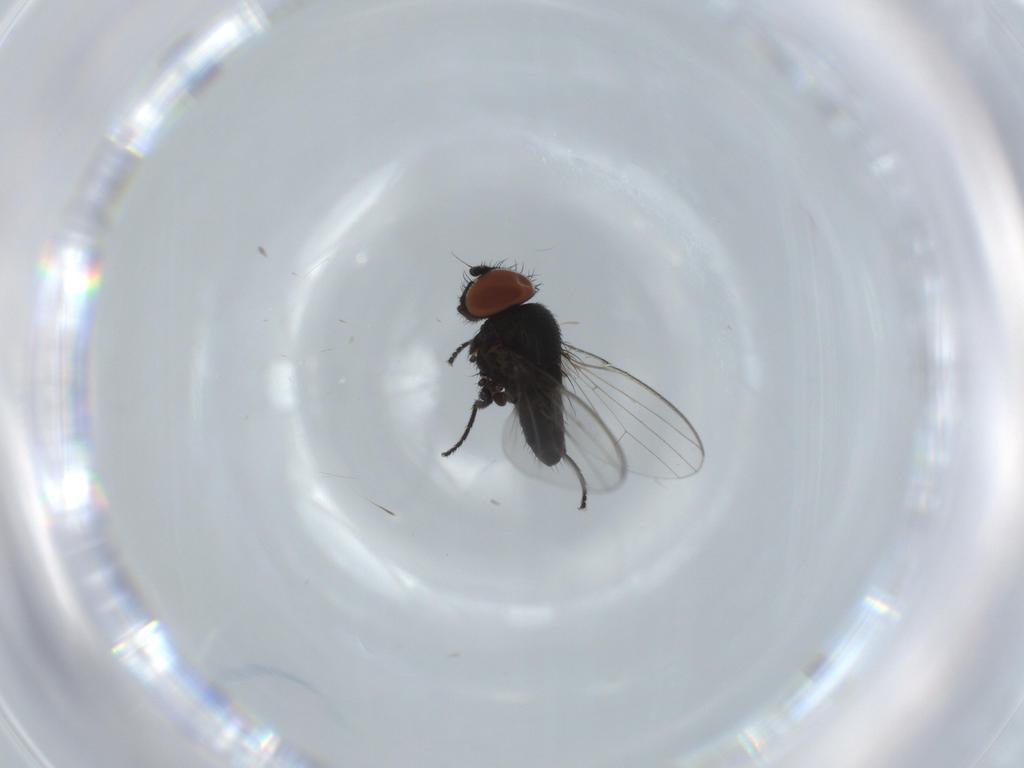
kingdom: Animalia
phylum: Arthropoda
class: Insecta
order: Diptera
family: Milichiidae
